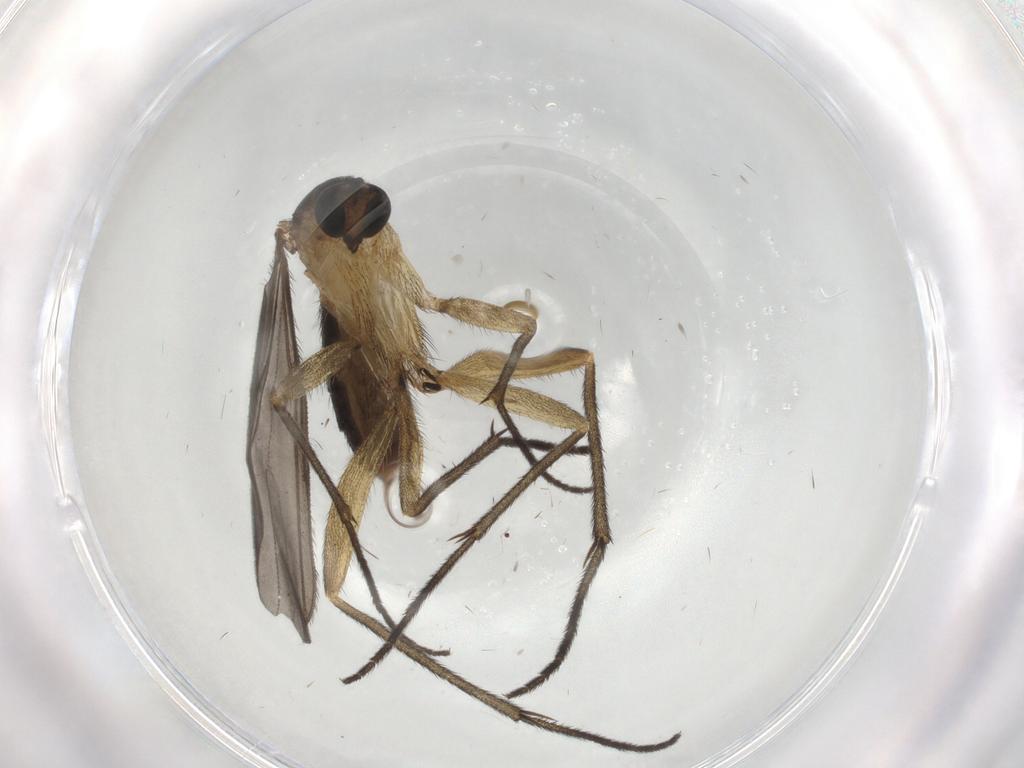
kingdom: Animalia
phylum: Arthropoda
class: Insecta
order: Diptera
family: Sciaridae
